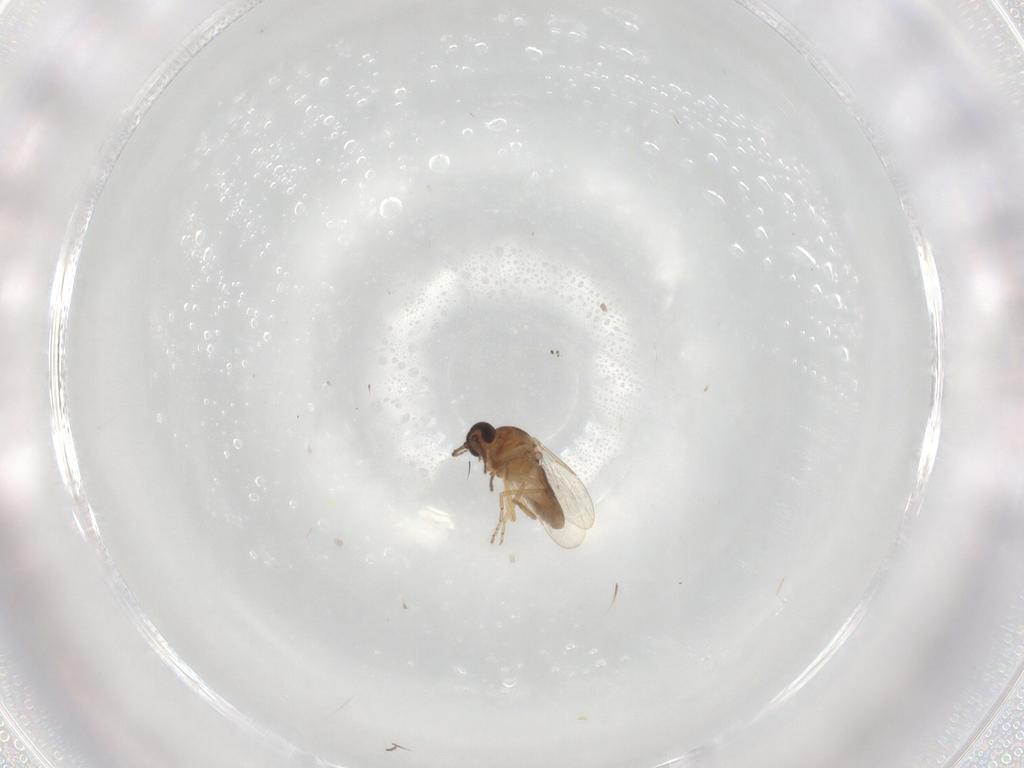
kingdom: Animalia
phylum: Arthropoda
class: Insecta
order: Diptera
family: Ceratopogonidae
